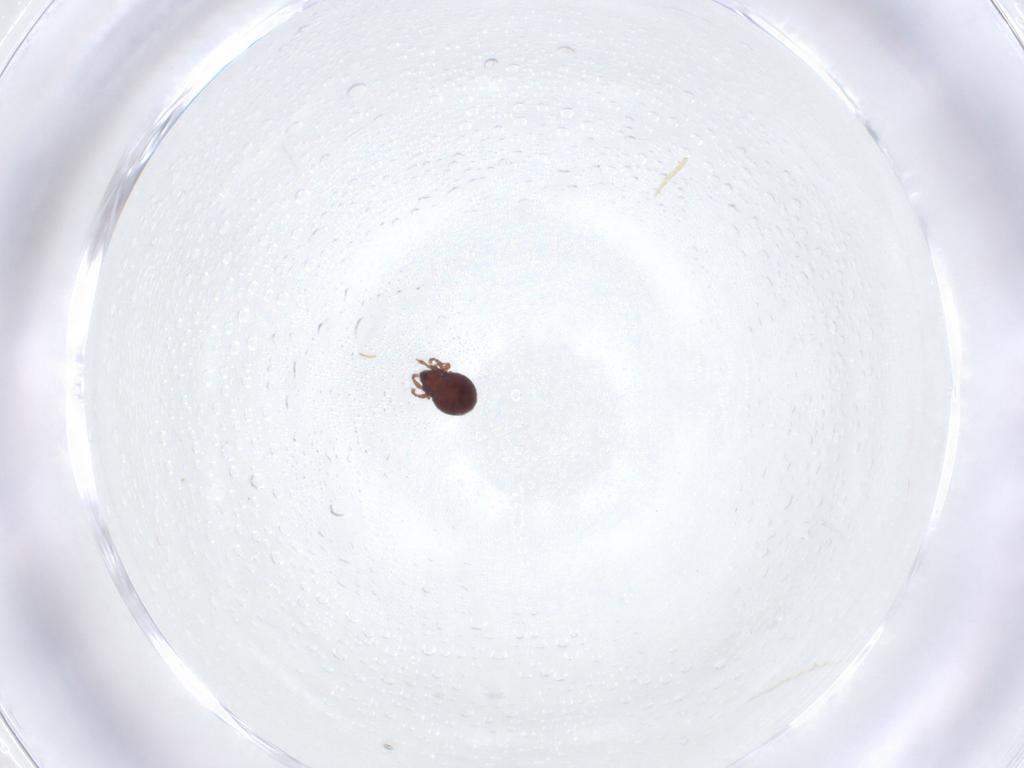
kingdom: Animalia
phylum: Arthropoda
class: Arachnida
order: Sarcoptiformes
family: Achipteriidae
